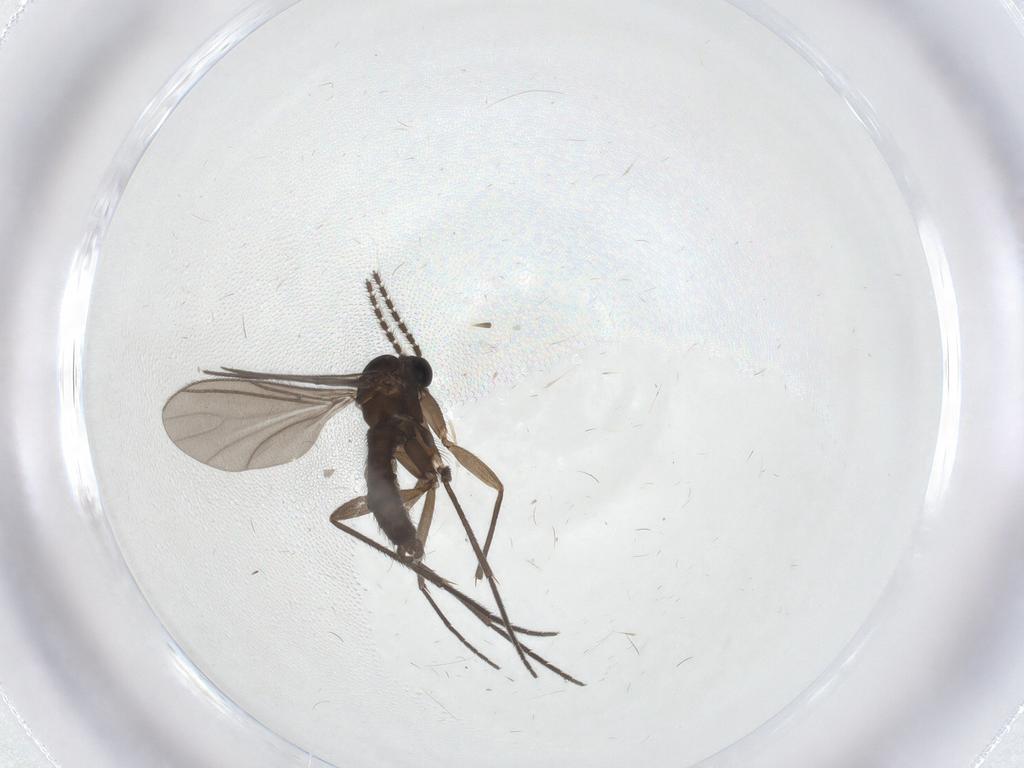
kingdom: Animalia
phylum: Arthropoda
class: Insecta
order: Diptera
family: Sciaridae
